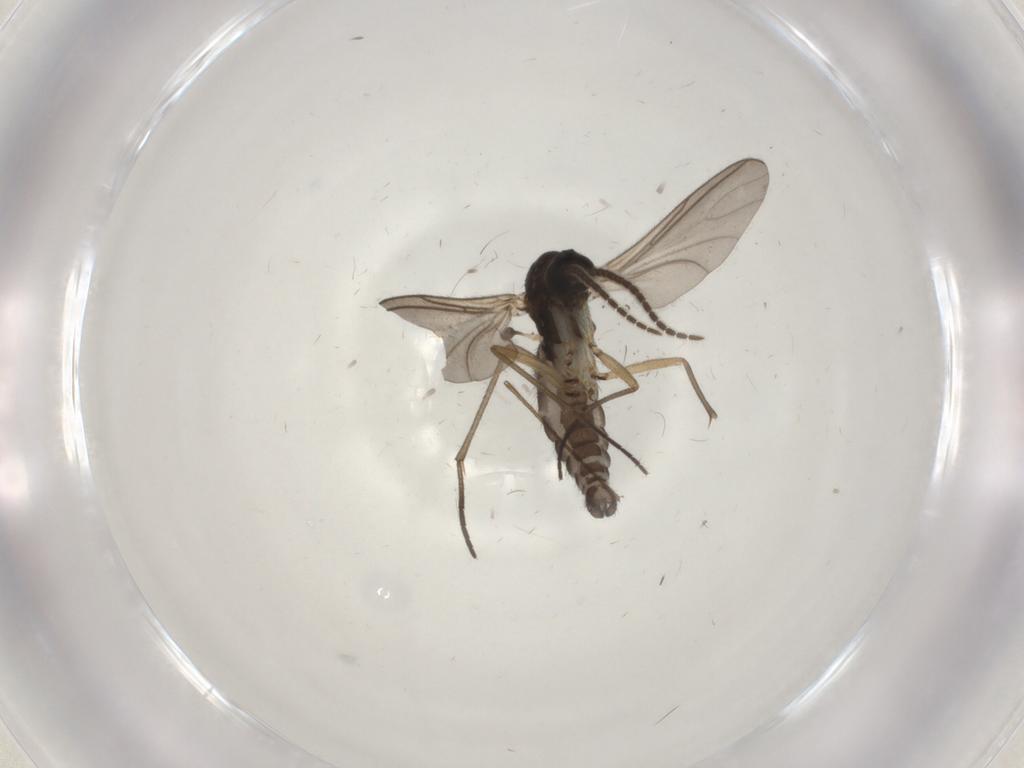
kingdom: Animalia
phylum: Arthropoda
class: Insecta
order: Diptera
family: Sciaridae
